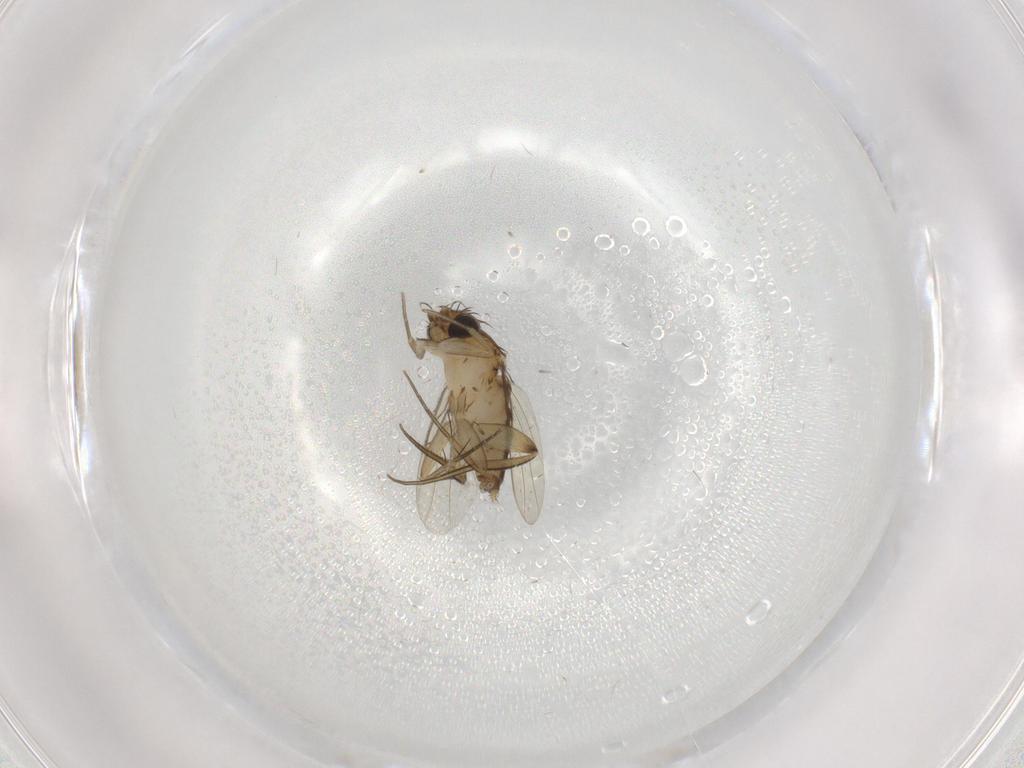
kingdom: Animalia
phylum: Arthropoda
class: Insecta
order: Diptera
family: Phoridae
